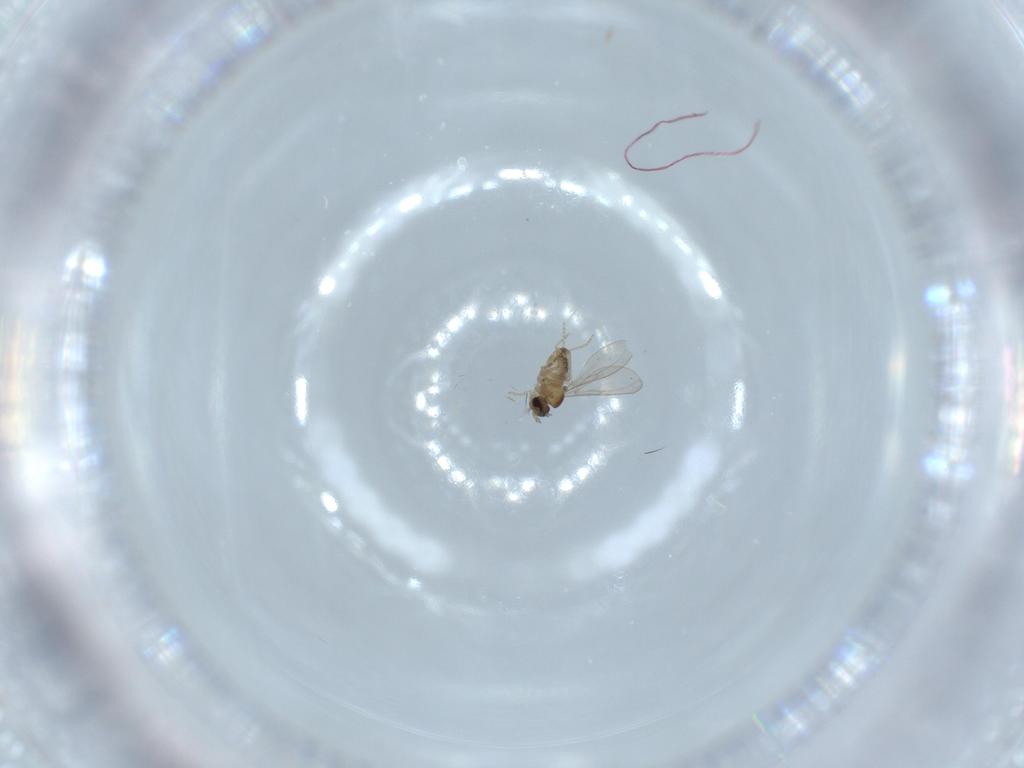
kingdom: Animalia
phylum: Arthropoda
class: Insecta
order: Diptera
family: Cecidomyiidae
